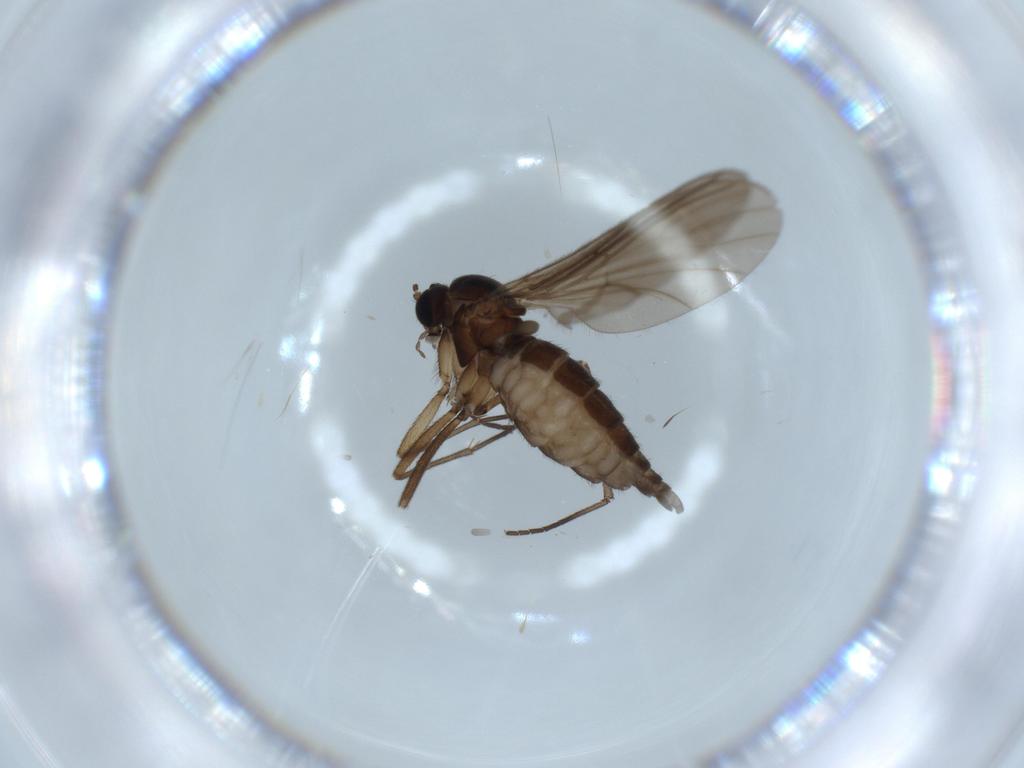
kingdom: Animalia
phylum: Arthropoda
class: Insecta
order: Diptera
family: Sciaridae
